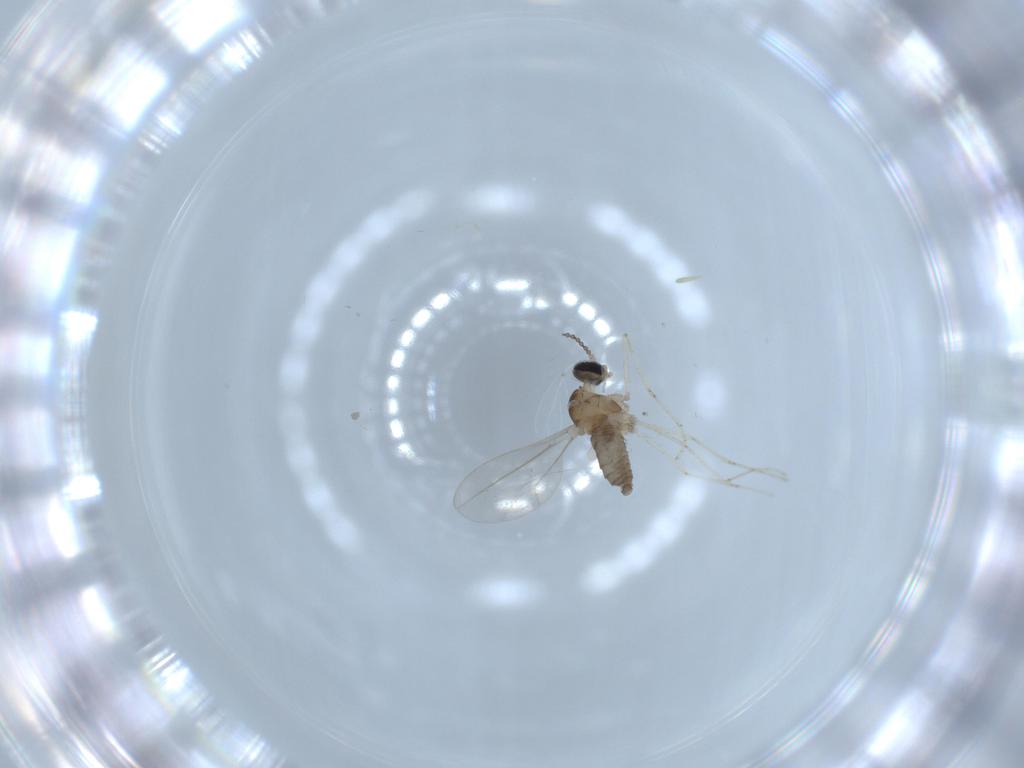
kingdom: Animalia
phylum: Arthropoda
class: Insecta
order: Diptera
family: Cecidomyiidae
